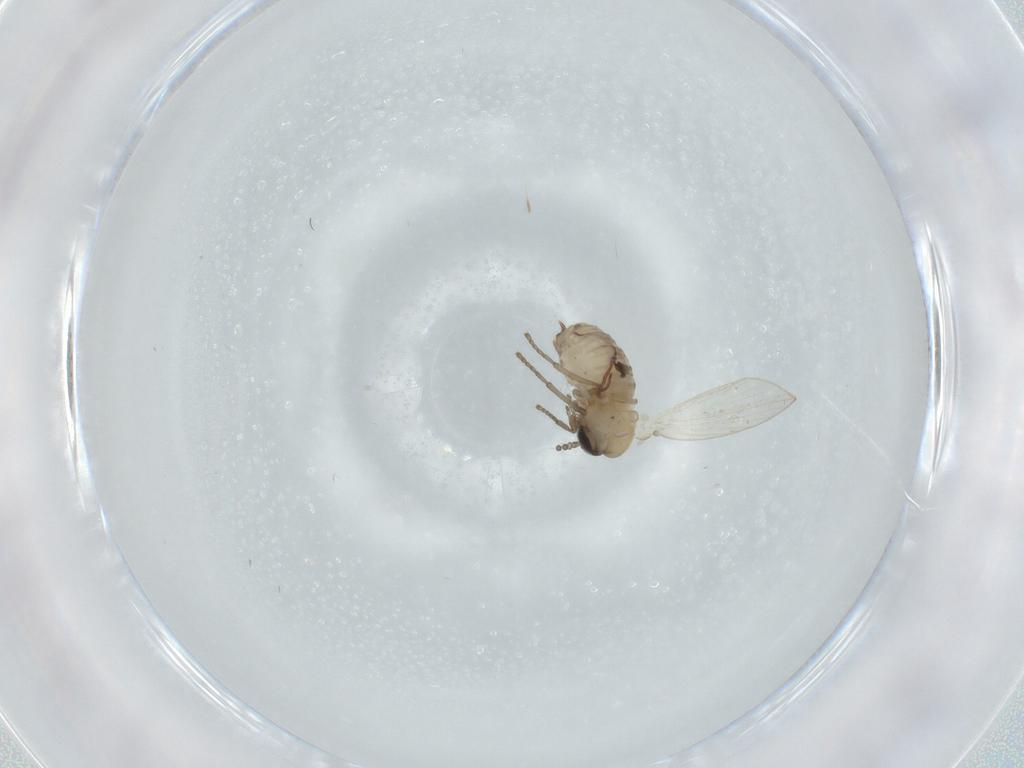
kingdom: Animalia
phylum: Arthropoda
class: Insecta
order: Diptera
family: Psychodidae
